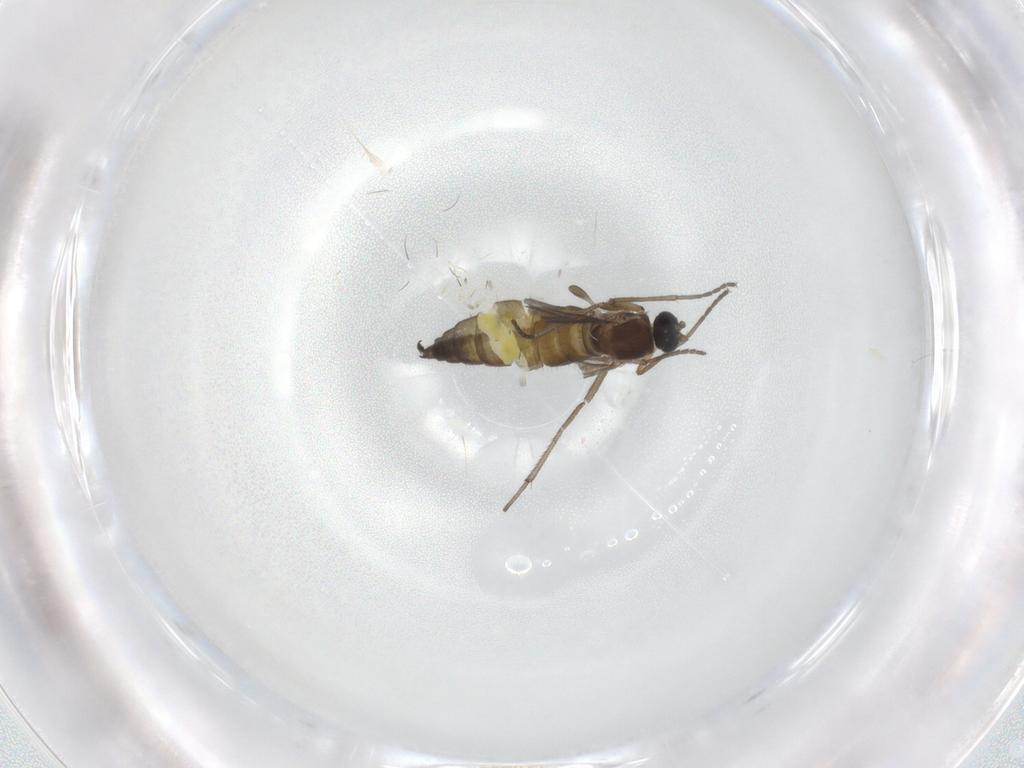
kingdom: Animalia
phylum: Arthropoda
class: Insecta
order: Diptera
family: Sciaridae
